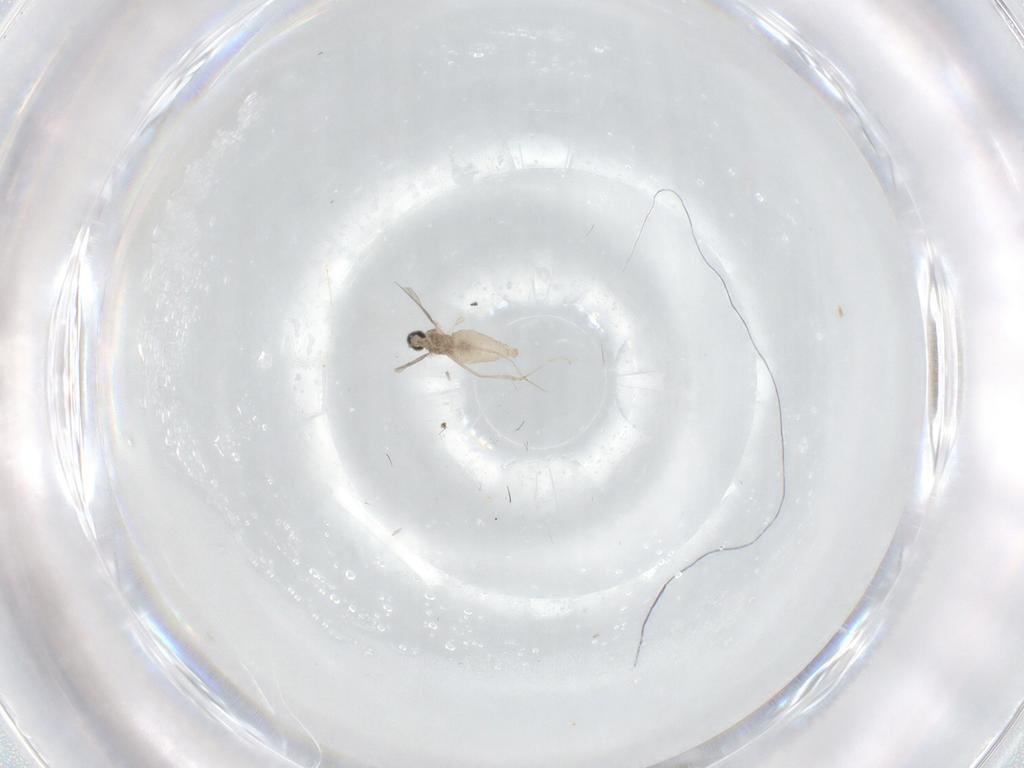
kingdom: Animalia
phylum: Arthropoda
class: Insecta
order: Diptera
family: Cecidomyiidae
